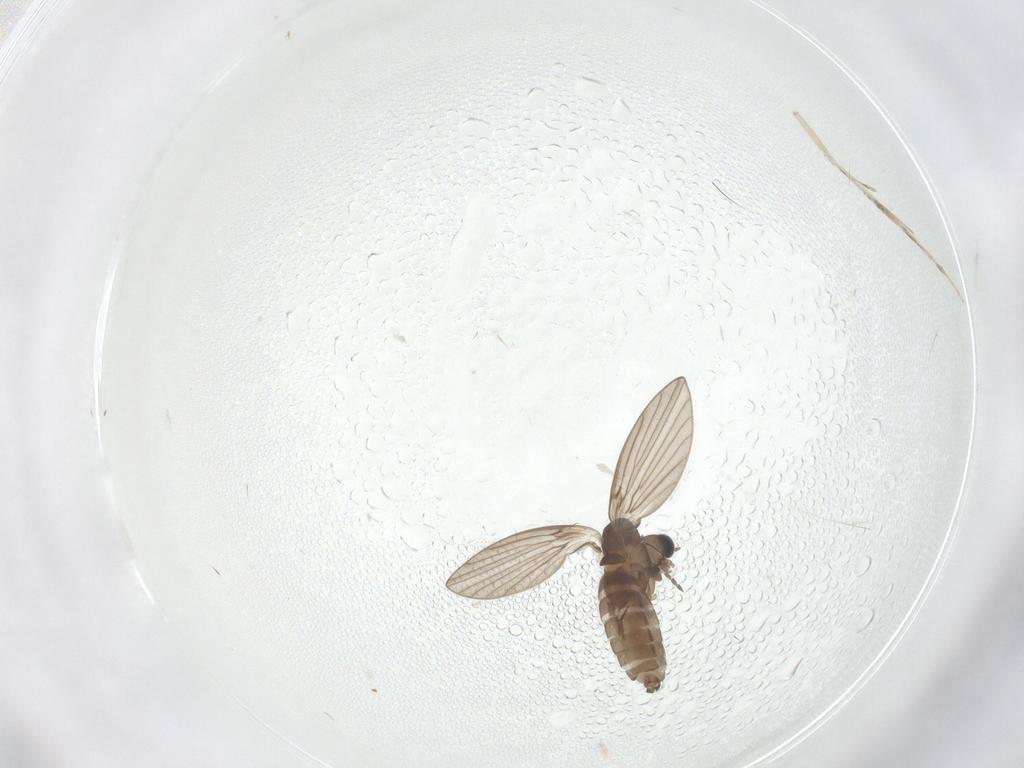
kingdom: Animalia
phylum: Arthropoda
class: Insecta
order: Diptera
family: Psychodidae
